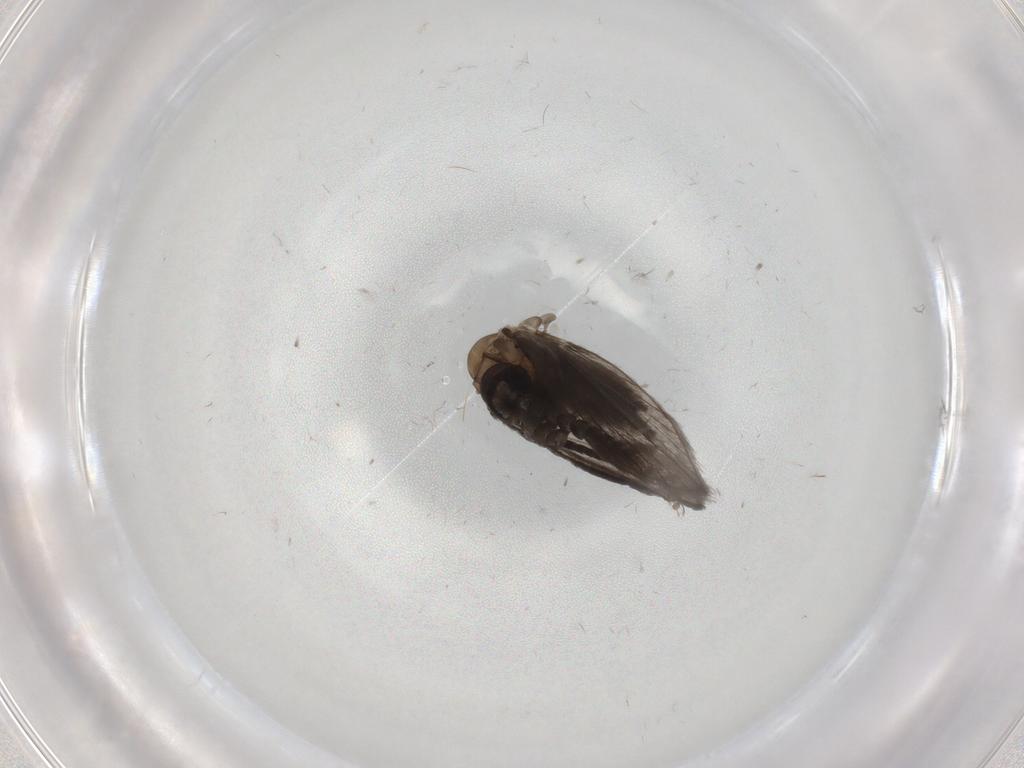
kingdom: Animalia
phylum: Arthropoda
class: Insecta
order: Diptera
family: Psychodidae
